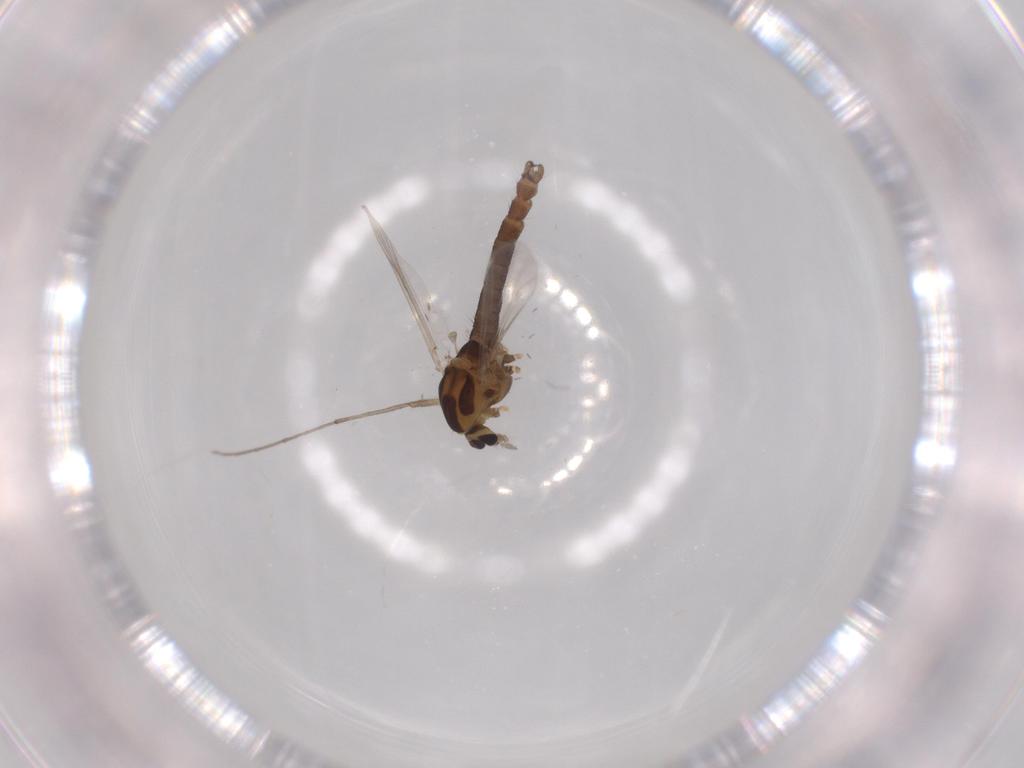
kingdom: Animalia
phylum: Arthropoda
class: Insecta
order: Diptera
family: Chironomidae
